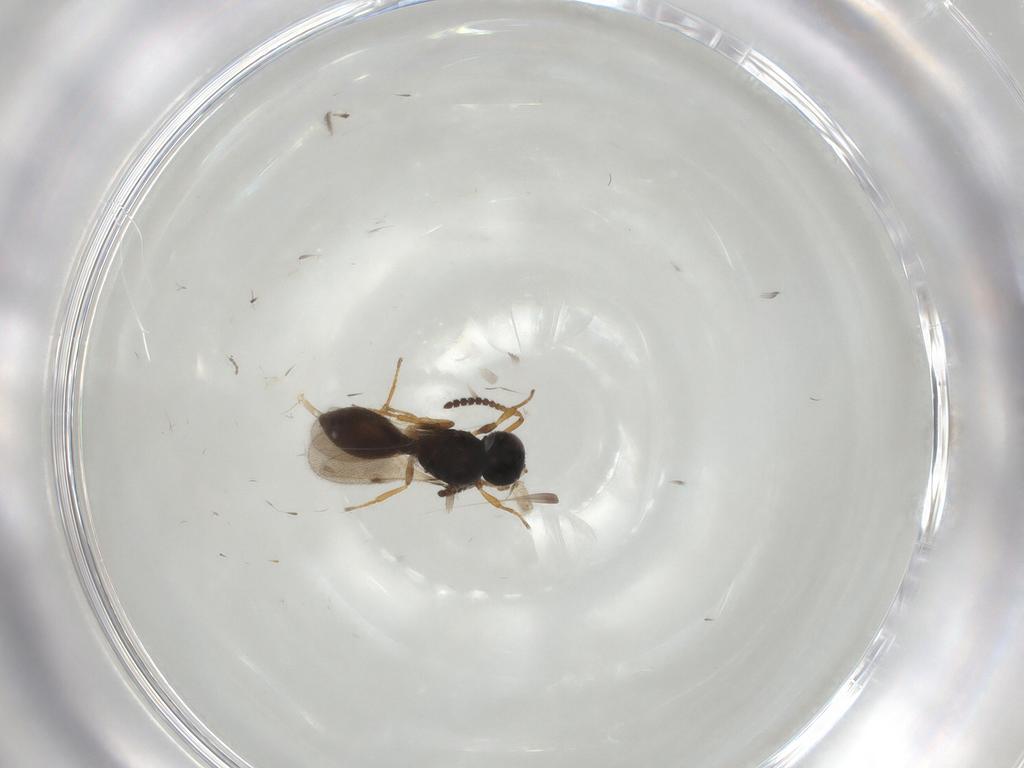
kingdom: Animalia
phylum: Arthropoda
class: Insecta
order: Hymenoptera
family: Scelionidae
